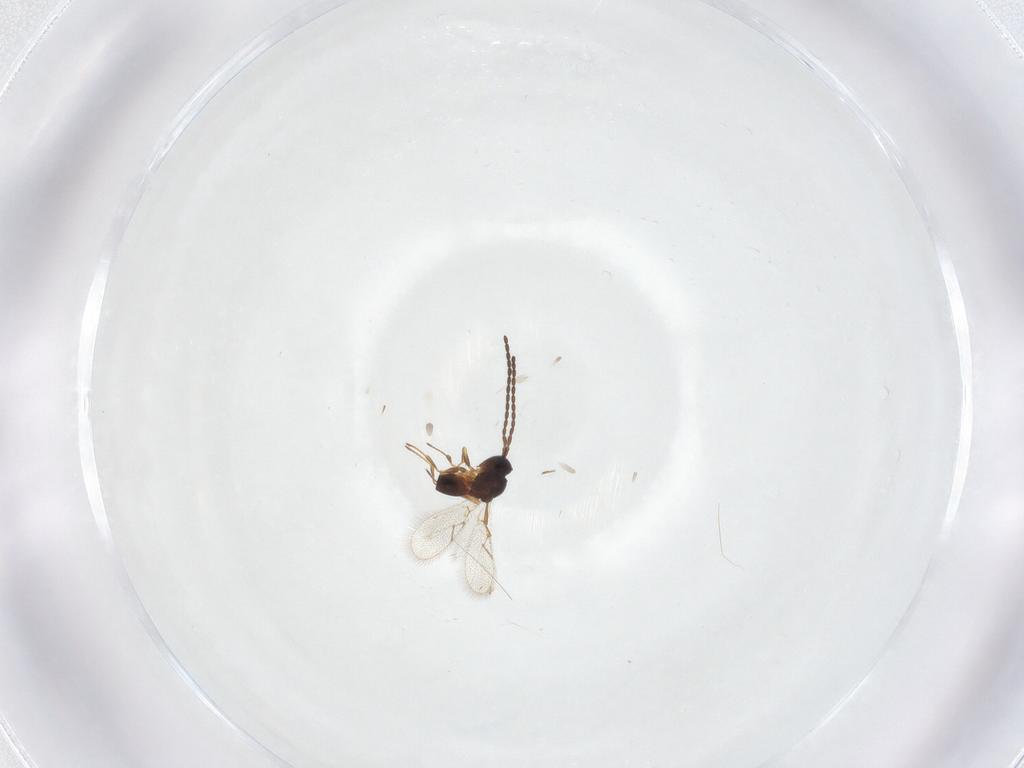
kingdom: Animalia
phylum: Arthropoda
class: Insecta
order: Hymenoptera
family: Figitidae
